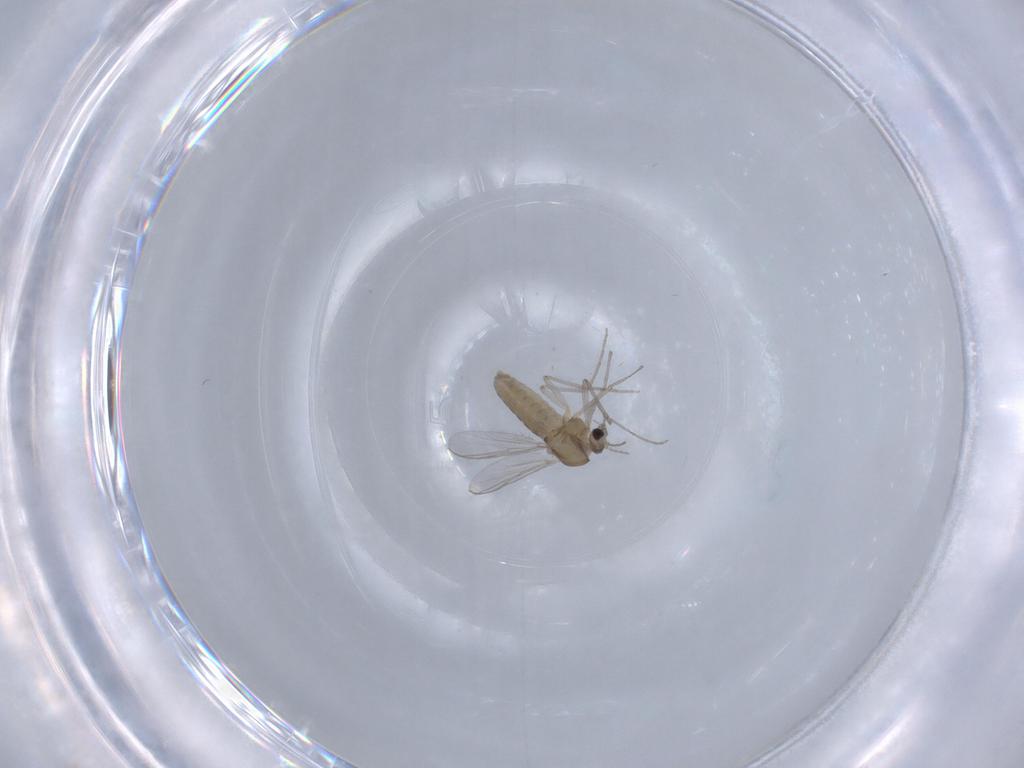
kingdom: Animalia
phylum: Arthropoda
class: Insecta
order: Diptera
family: Chironomidae
